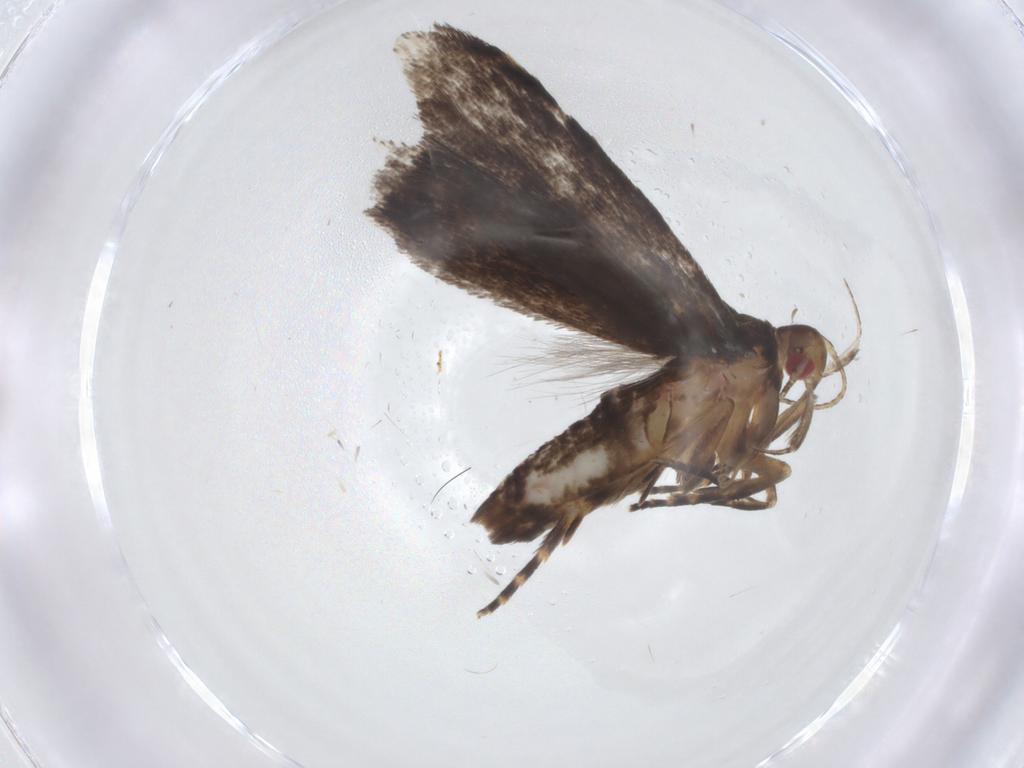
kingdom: Animalia
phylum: Arthropoda
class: Insecta
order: Lepidoptera
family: Gelechiidae
